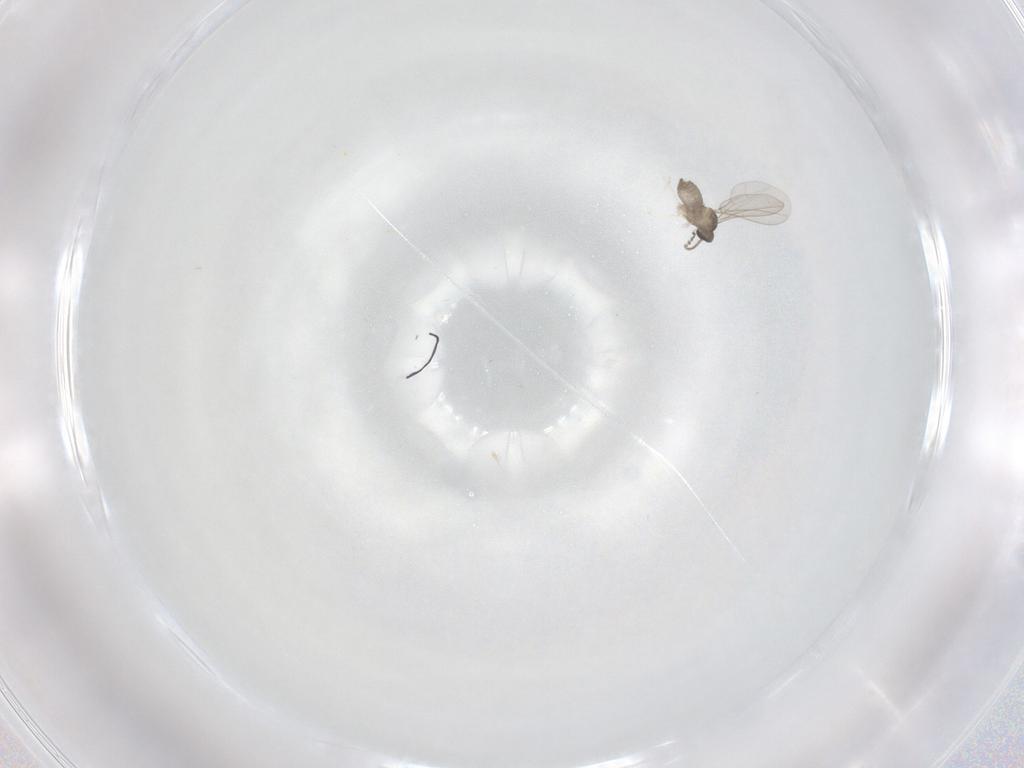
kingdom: Animalia
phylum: Arthropoda
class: Insecta
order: Diptera
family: Cecidomyiidae
